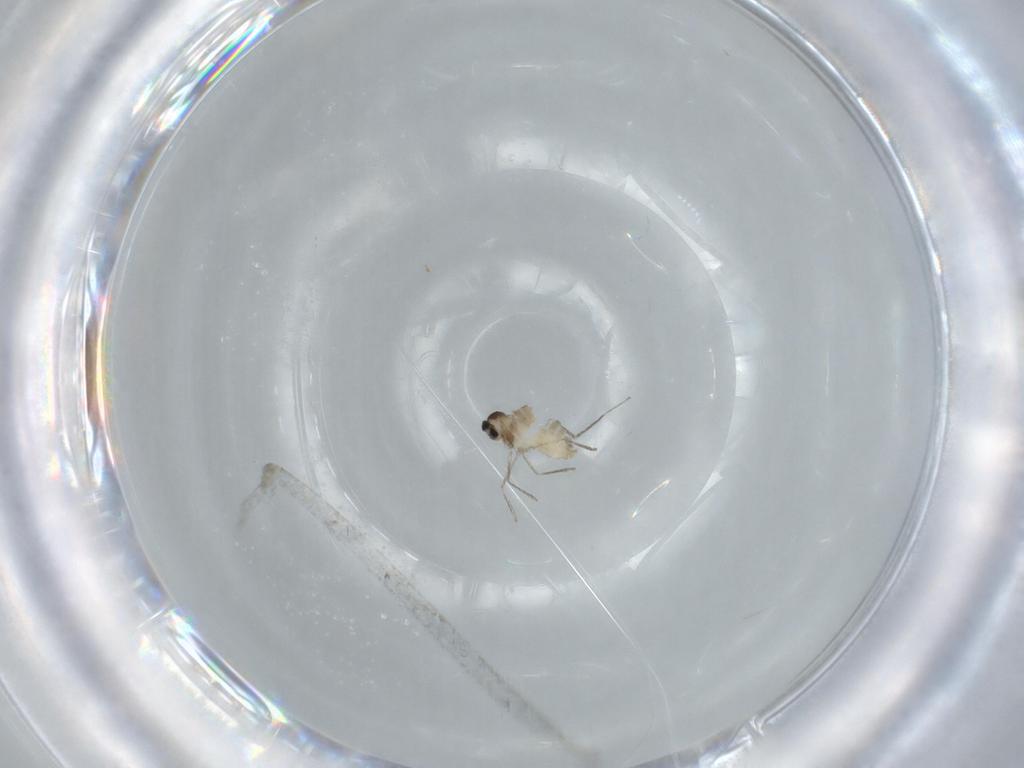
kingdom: Animalia
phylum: Arthropoda
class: Insecta
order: Diptera
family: Cecidomyiidae
